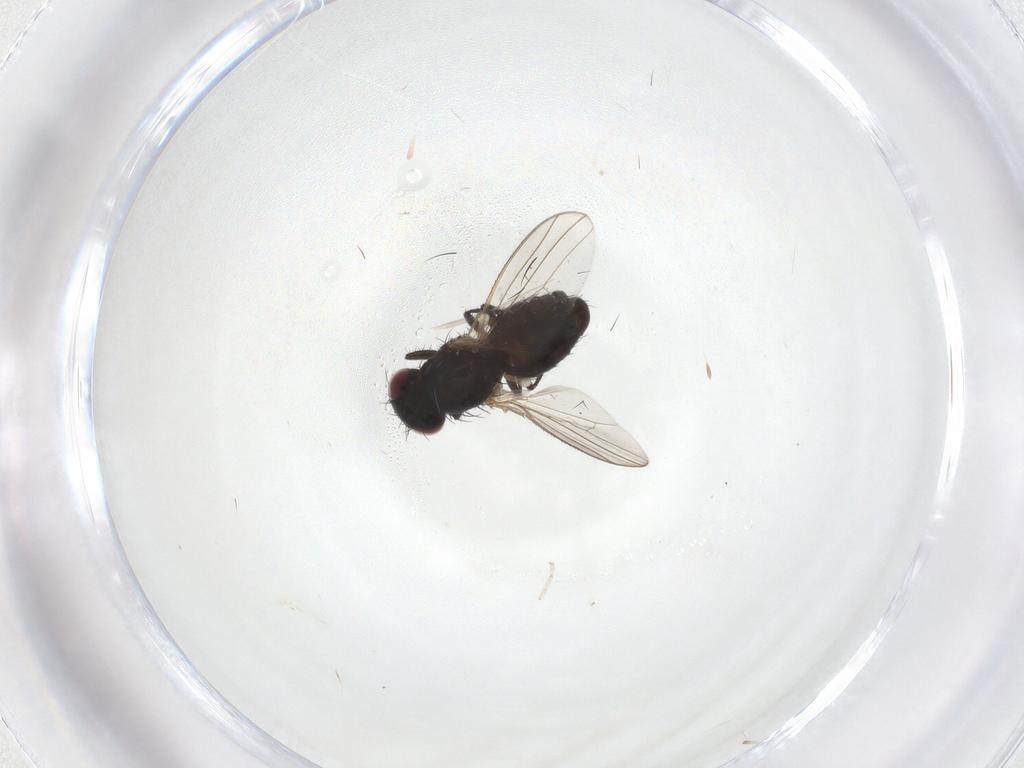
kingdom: Animalia
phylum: Arthropoda
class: Insecta
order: Diptera
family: Carnidae
